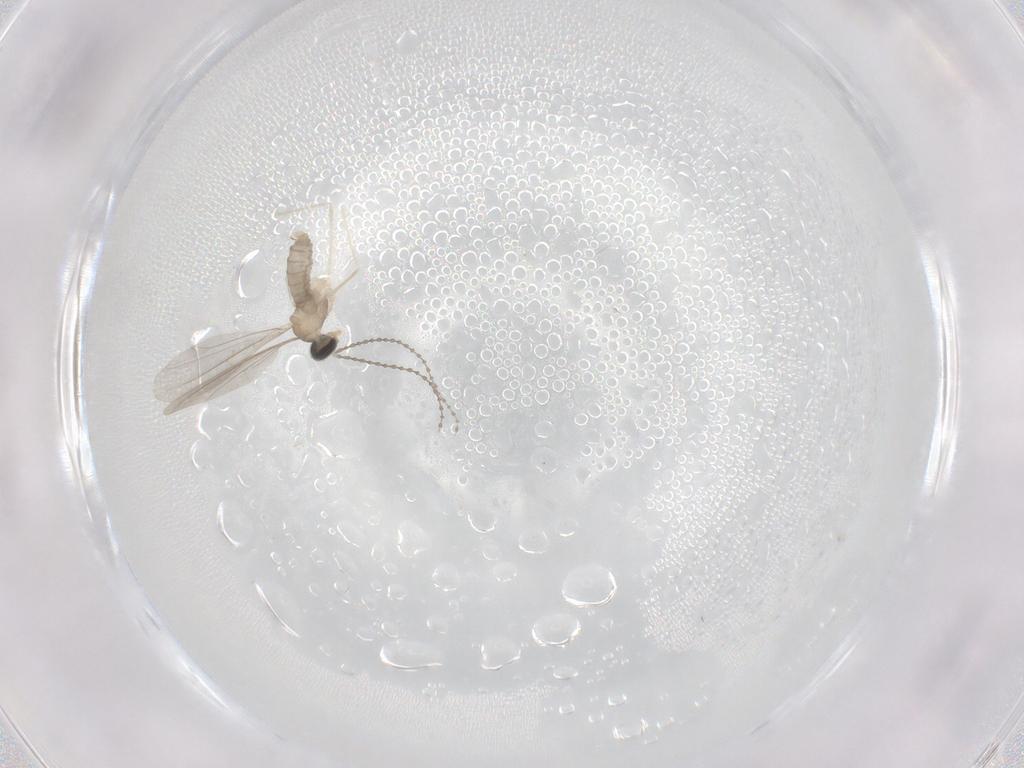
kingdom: Animalia
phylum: Arthropoda
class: Insecta
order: Diptera
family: Cecidomyiidae
